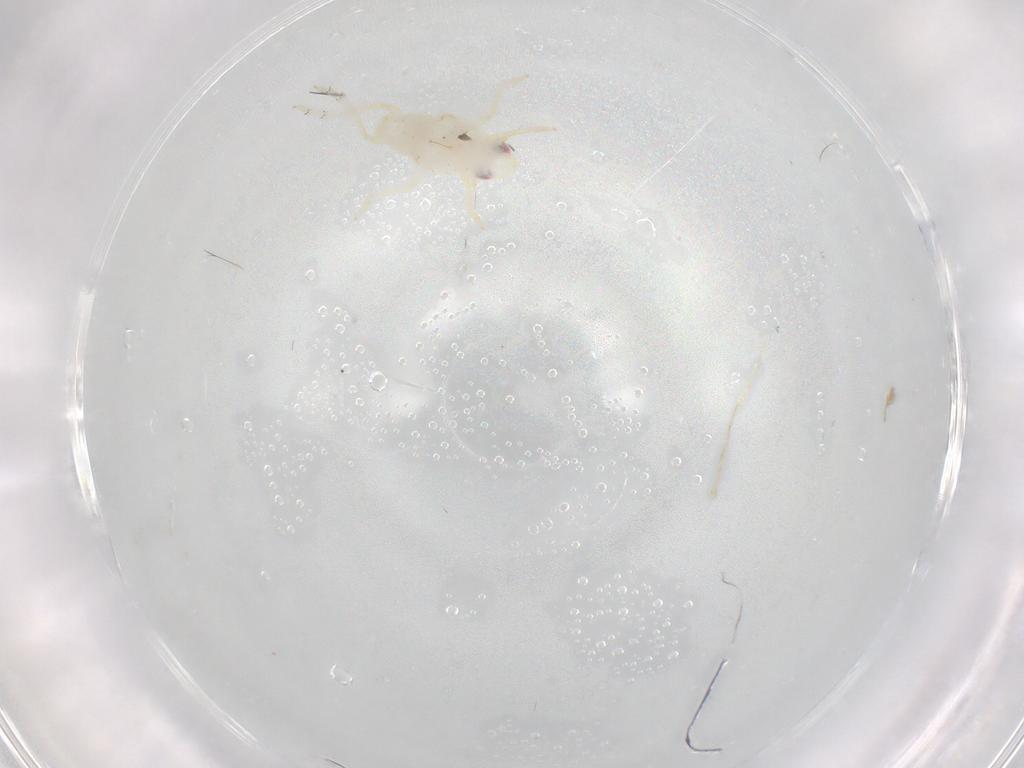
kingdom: Animalia
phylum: Arthropoda
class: Insecta
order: Hemiptera
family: Tropiduchidae
